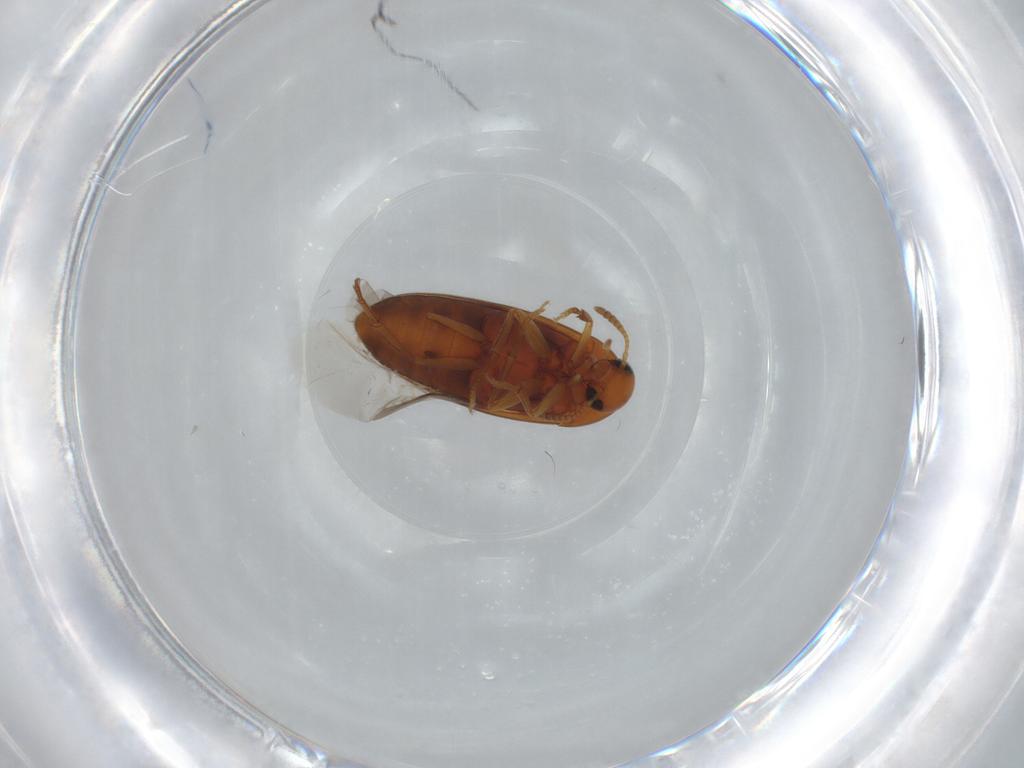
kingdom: Animalia
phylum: Arthropoda
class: Insecta
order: Coleoptera
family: Scraptiidae
